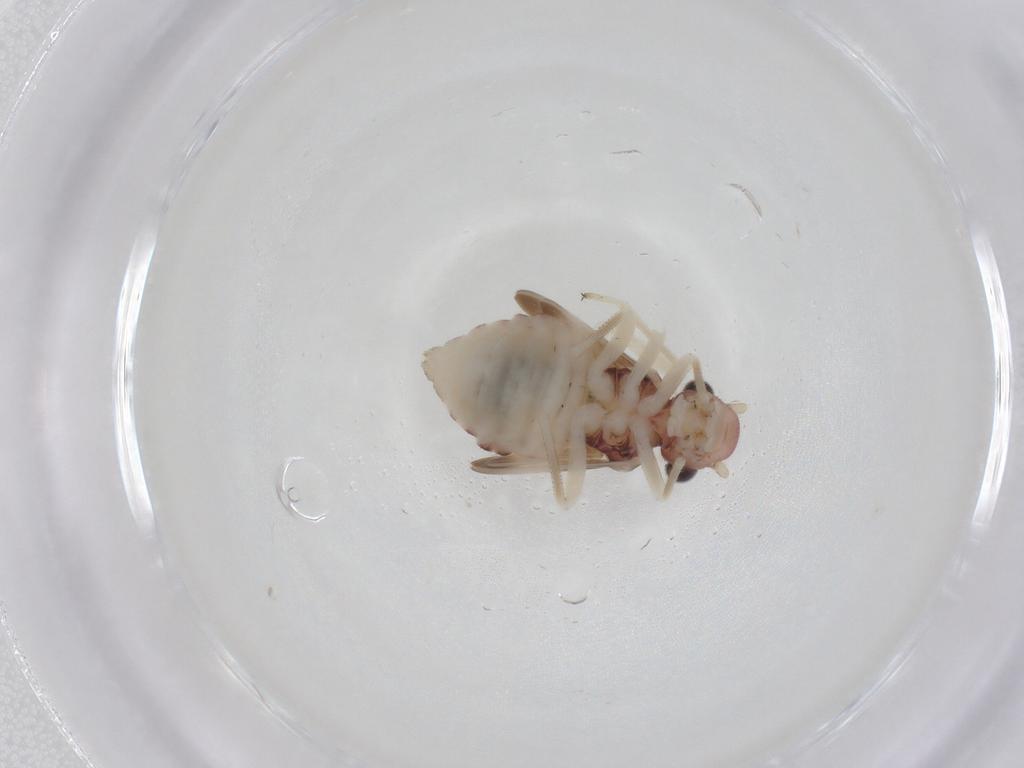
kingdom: Animalia
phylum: Arthropoda
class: Insecta
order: Psocodea
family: Amphipsocidae
